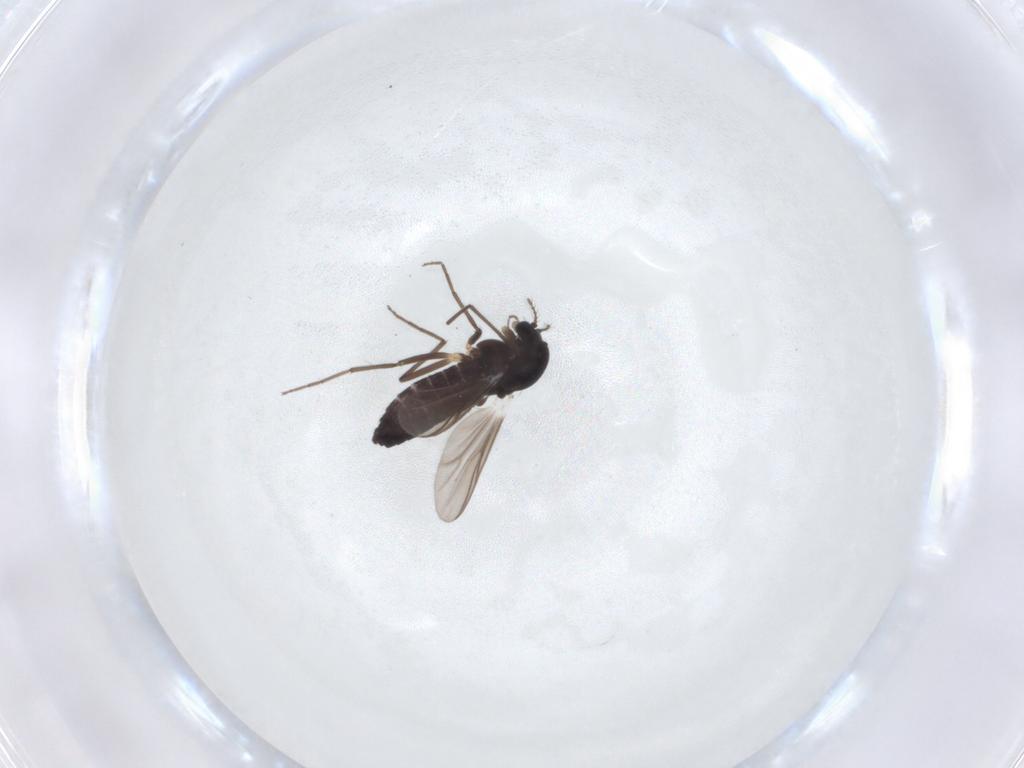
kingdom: Animalia
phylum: Arthropoda
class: Insecta
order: Diptera
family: Chironomidae
